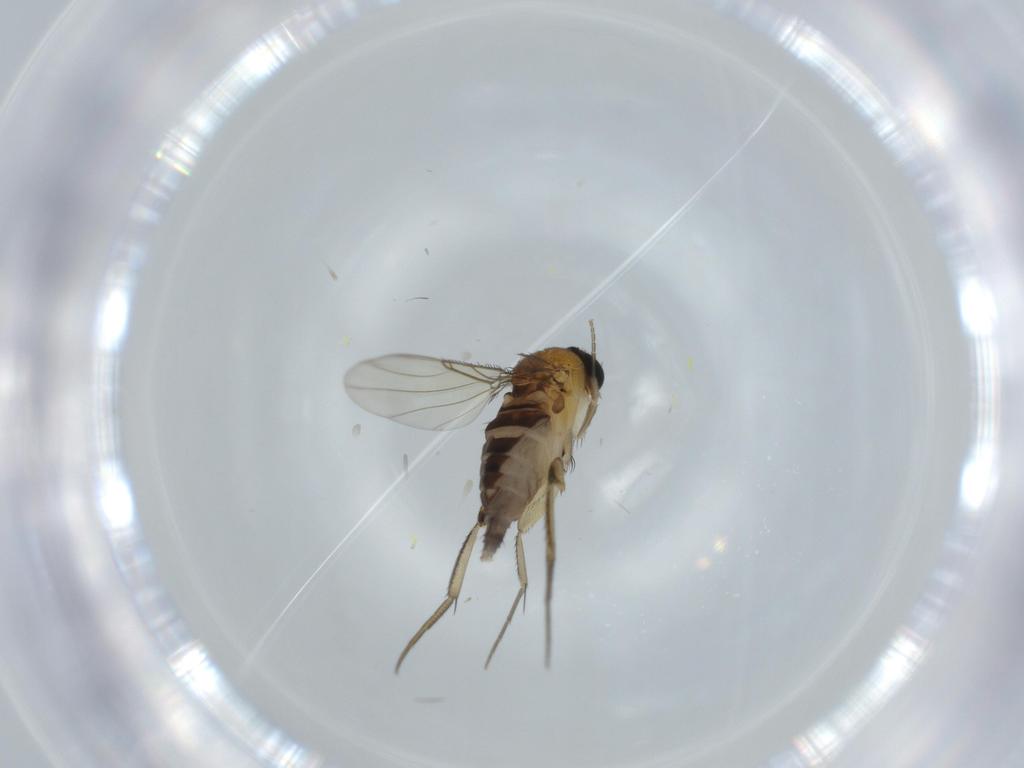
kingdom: Animalia
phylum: Arthropoda
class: Insecta
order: Diptera
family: Phoridae
